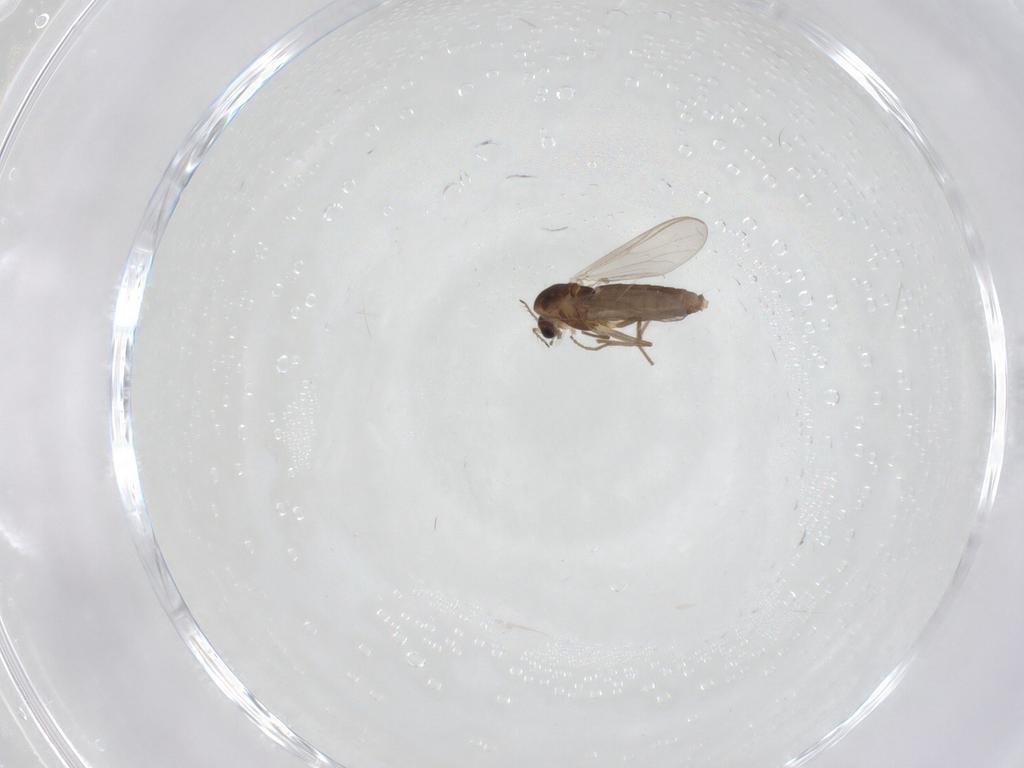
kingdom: Animalia
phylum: Arthropoda
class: Insecta
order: Diptera
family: Chironomidae
